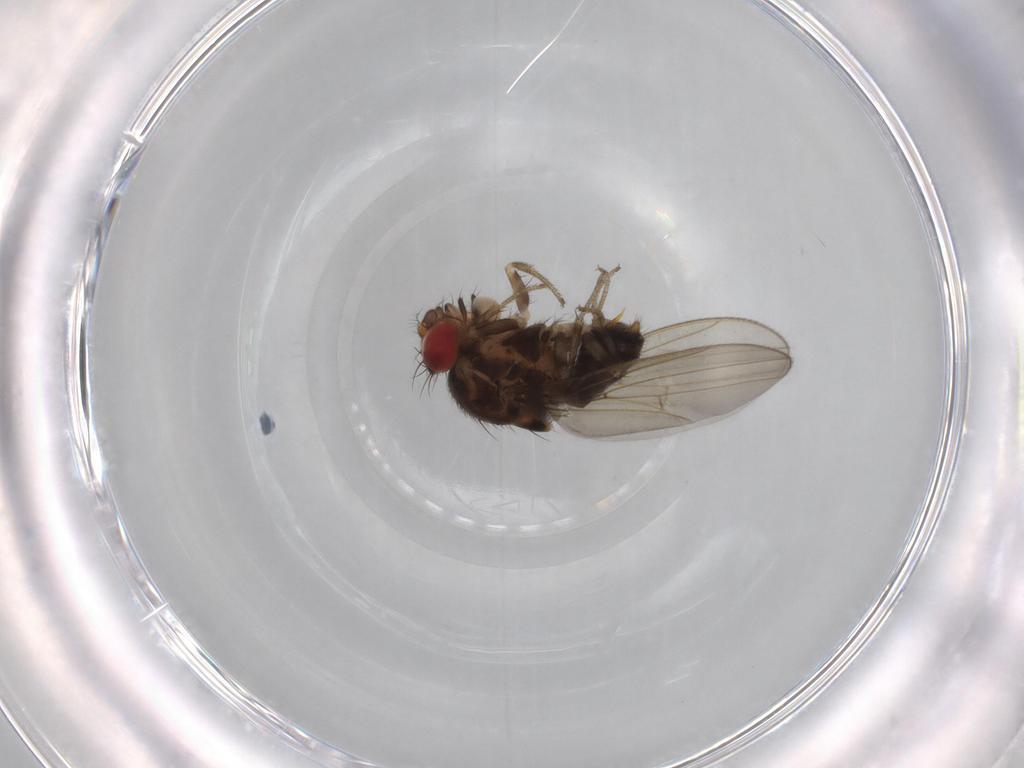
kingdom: Animalia
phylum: Arthropoda
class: Insecta
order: Diptera
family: Drosophilidae
